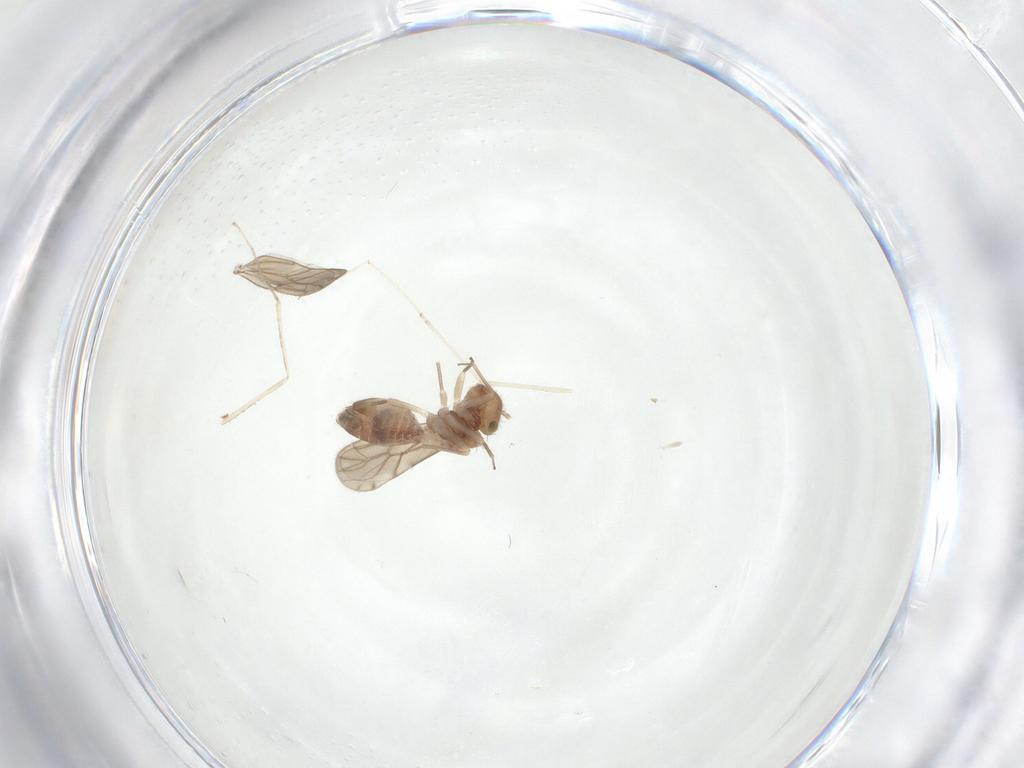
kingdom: Animalia
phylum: Arthropoda
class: Insecta
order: Psocodea
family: Ectopsocidae
